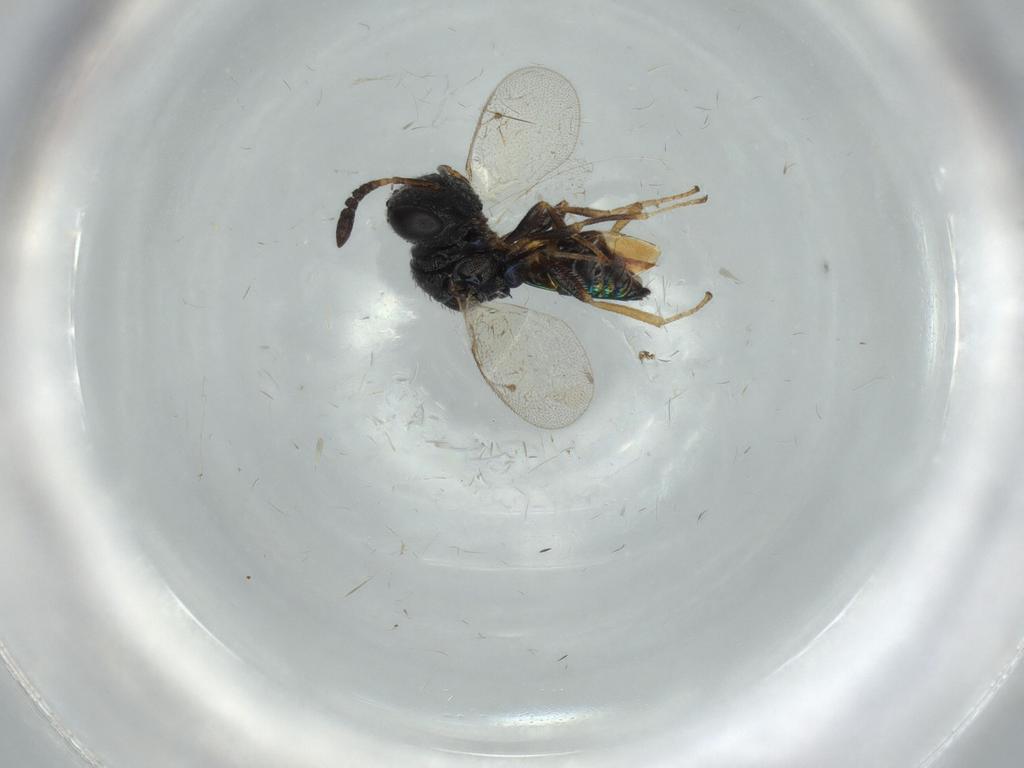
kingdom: Animalia
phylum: Arthropoda
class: Insecta
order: Hymenoptera
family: Agaonidae
